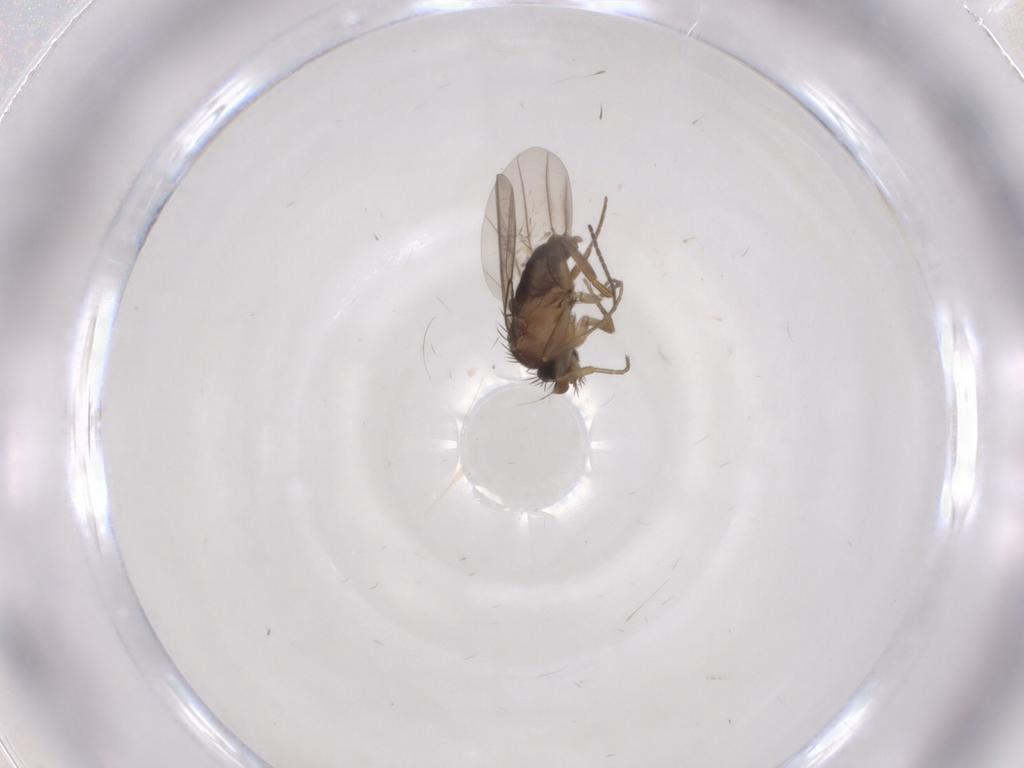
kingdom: Animalia
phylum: Arthropoda
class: Insecta
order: Diptera
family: Phoridae
